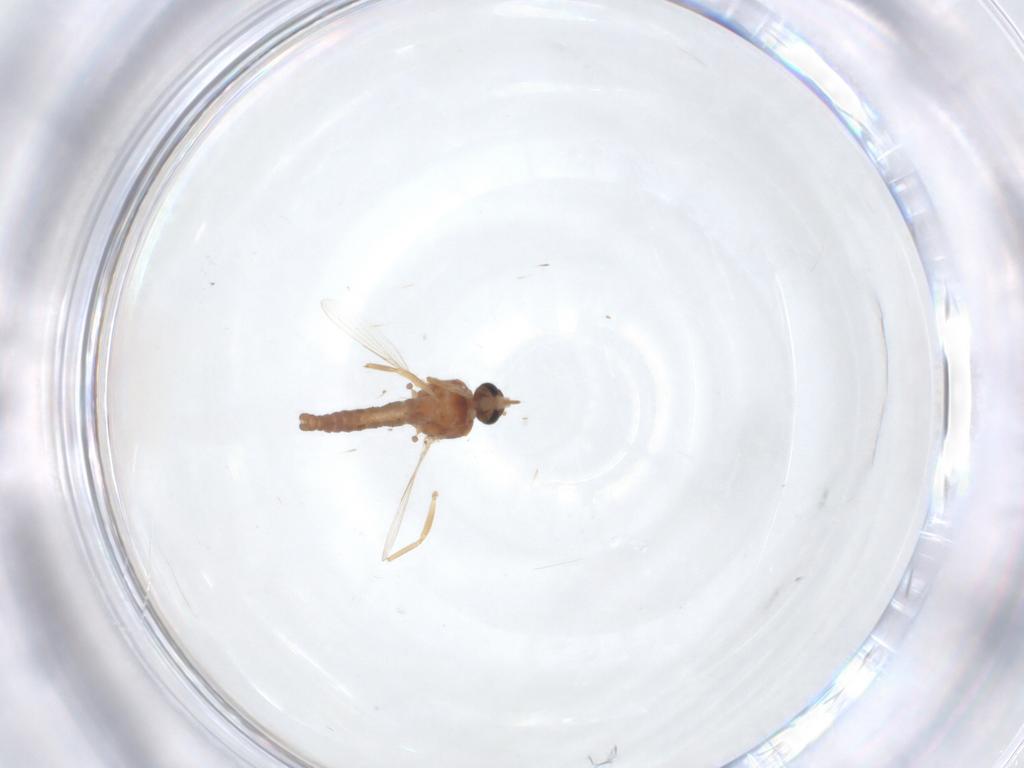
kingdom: Animalia
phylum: Arthropoda
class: Insecta
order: Diptera
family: Ceratopogonidae
